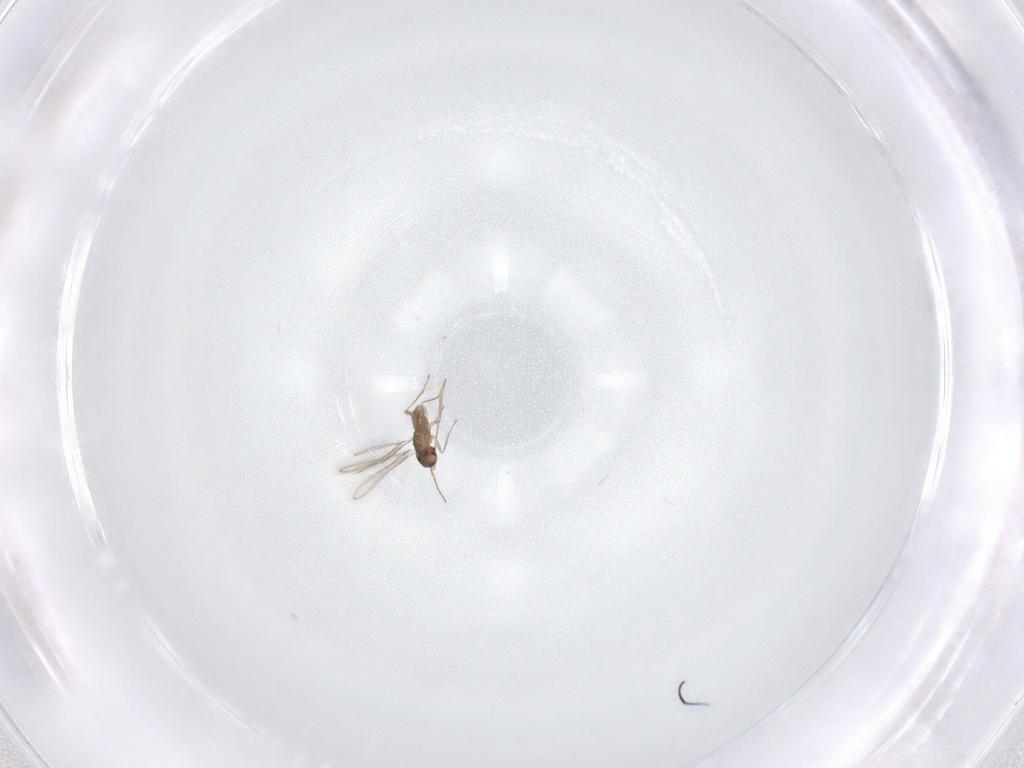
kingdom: Animalia
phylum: Arthropoda
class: Insecta
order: Hymenoptera
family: Mymaridae
